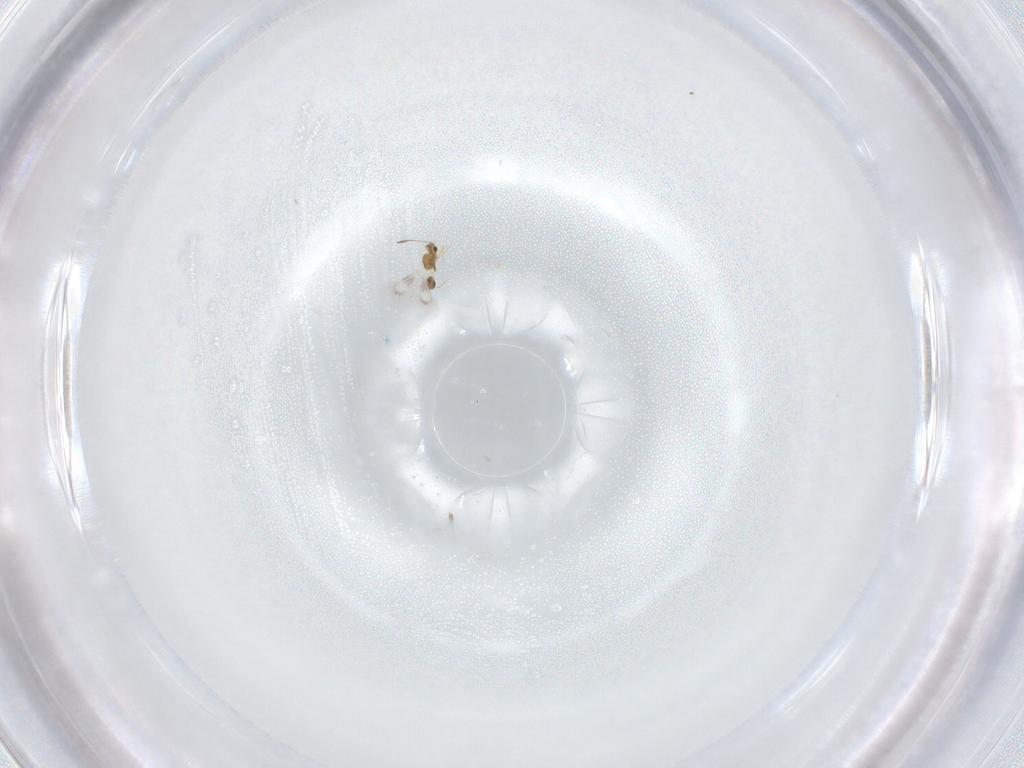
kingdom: Animalia
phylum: Arthropoda
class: Insecta
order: Hymenoptera
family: Mymarommatidae
